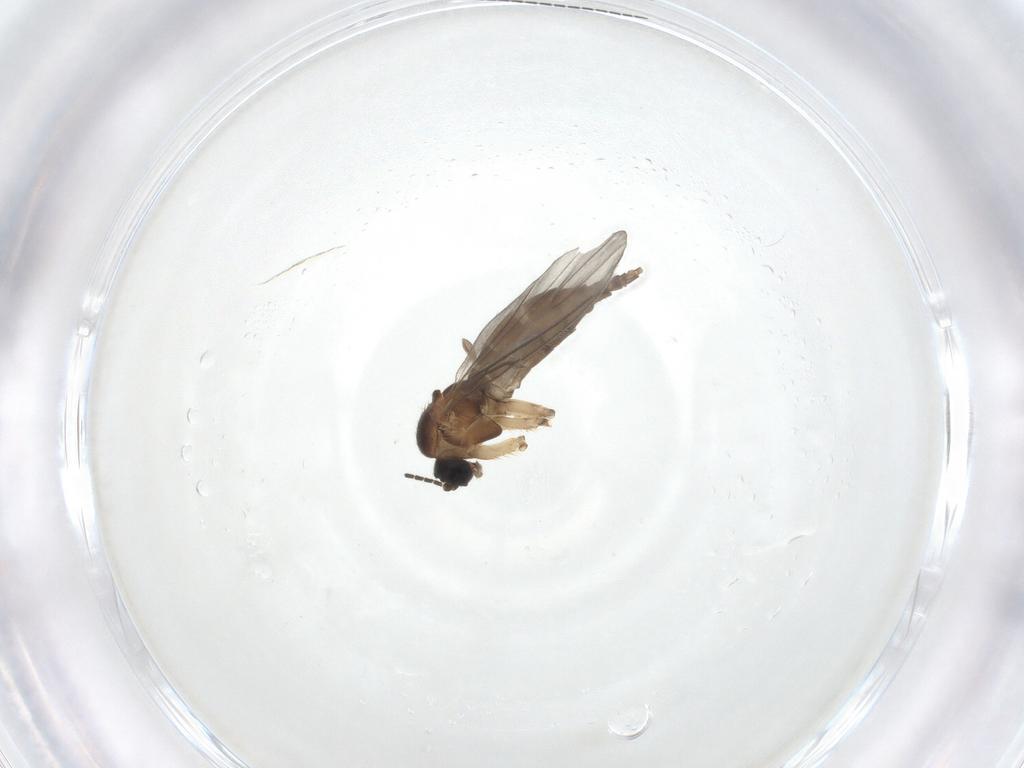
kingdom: Animalia
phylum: Arthropoda
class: Insecta
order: Diptera
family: Sciaridae
